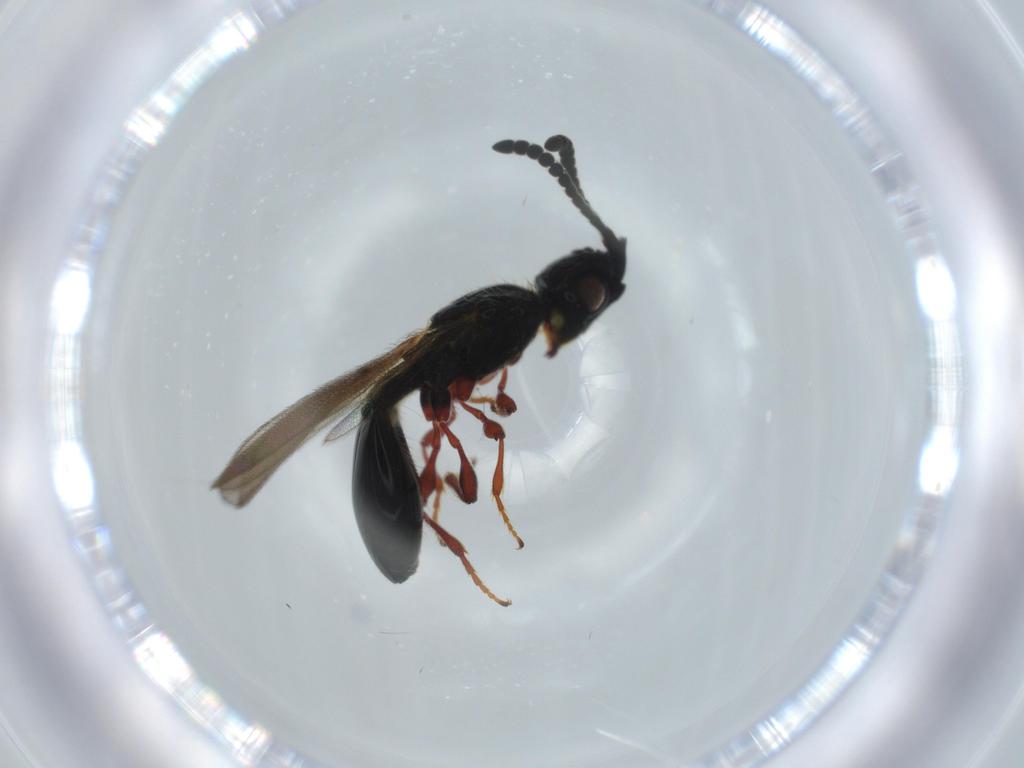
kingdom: Animalia
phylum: Arthropoda
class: Insecta
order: Hymenoptera
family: Diapriidae
